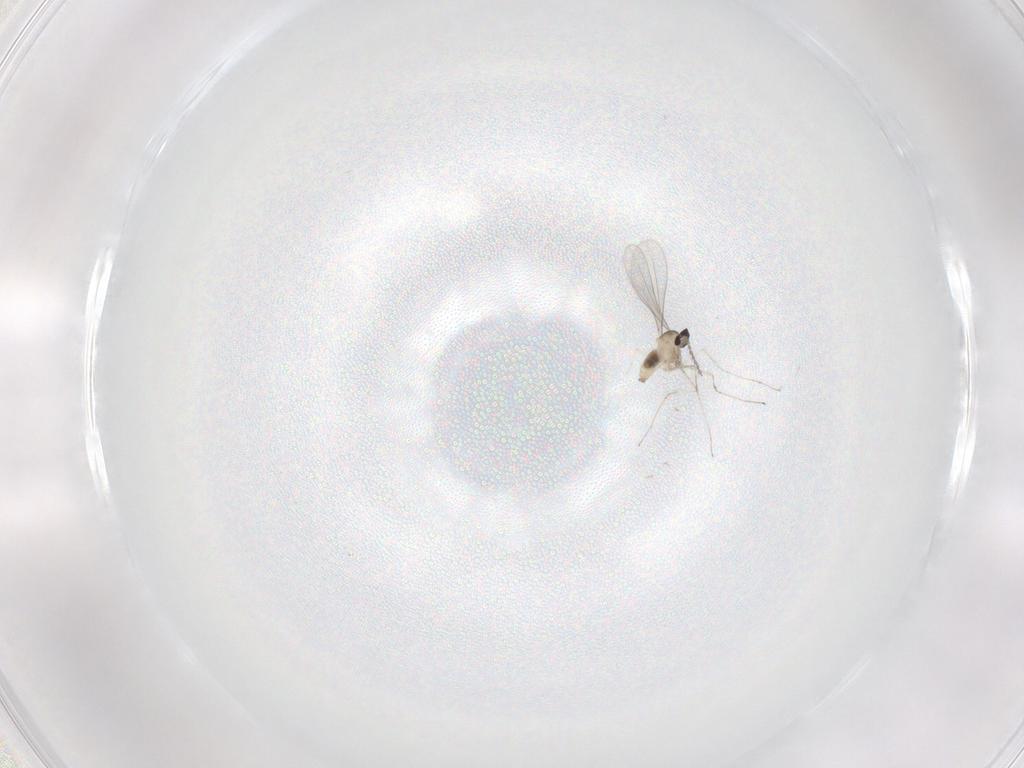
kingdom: Animalia
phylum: Arthropoda
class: Insecta
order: Diptera
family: Cecidomyiidae
